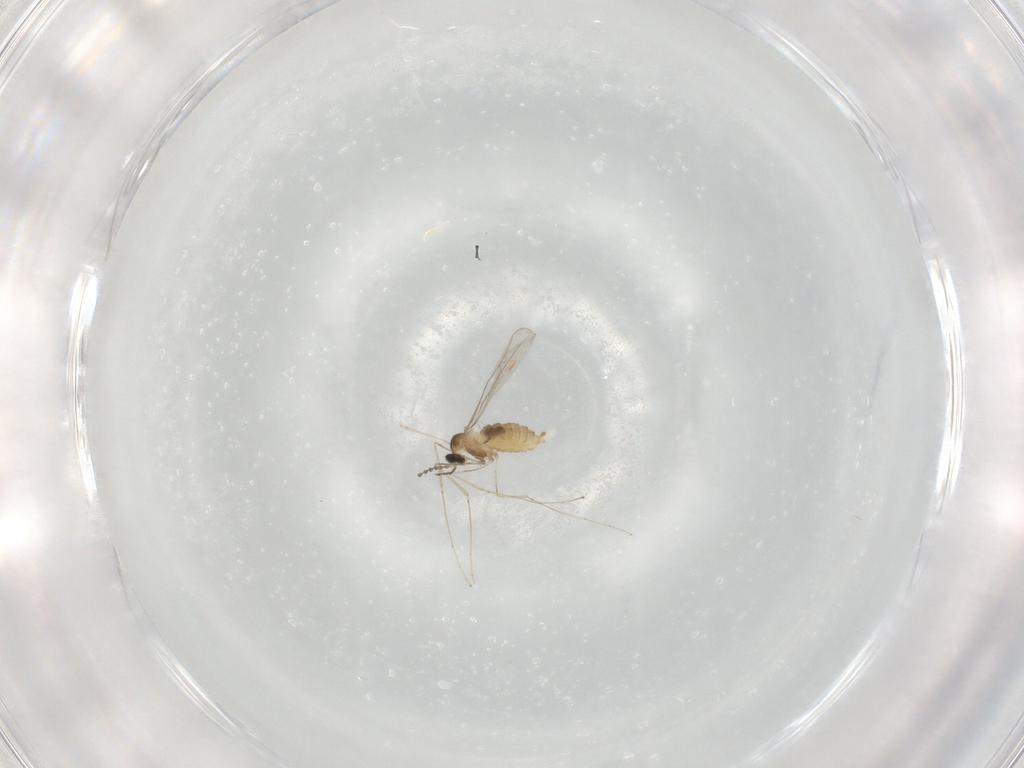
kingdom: Animalia
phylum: Arthropoda
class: Insecta
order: Diptera
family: Cecidomyiidae
